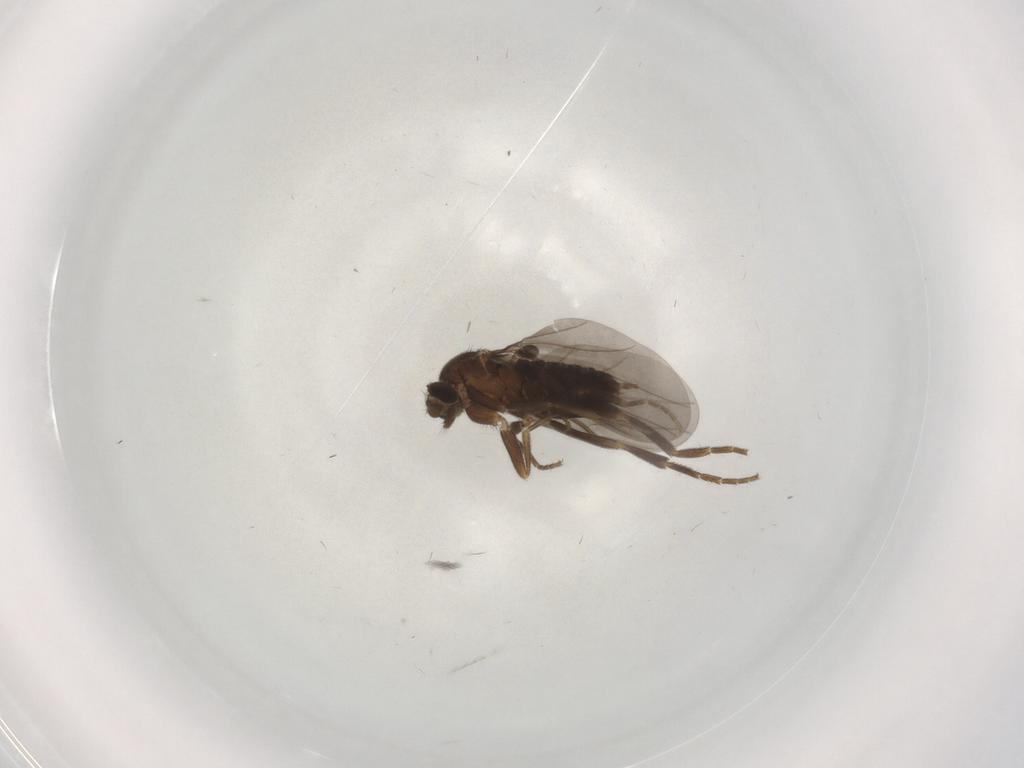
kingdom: Animalia
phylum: Arthropoda
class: Insecta
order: Diptera
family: Phoridae
